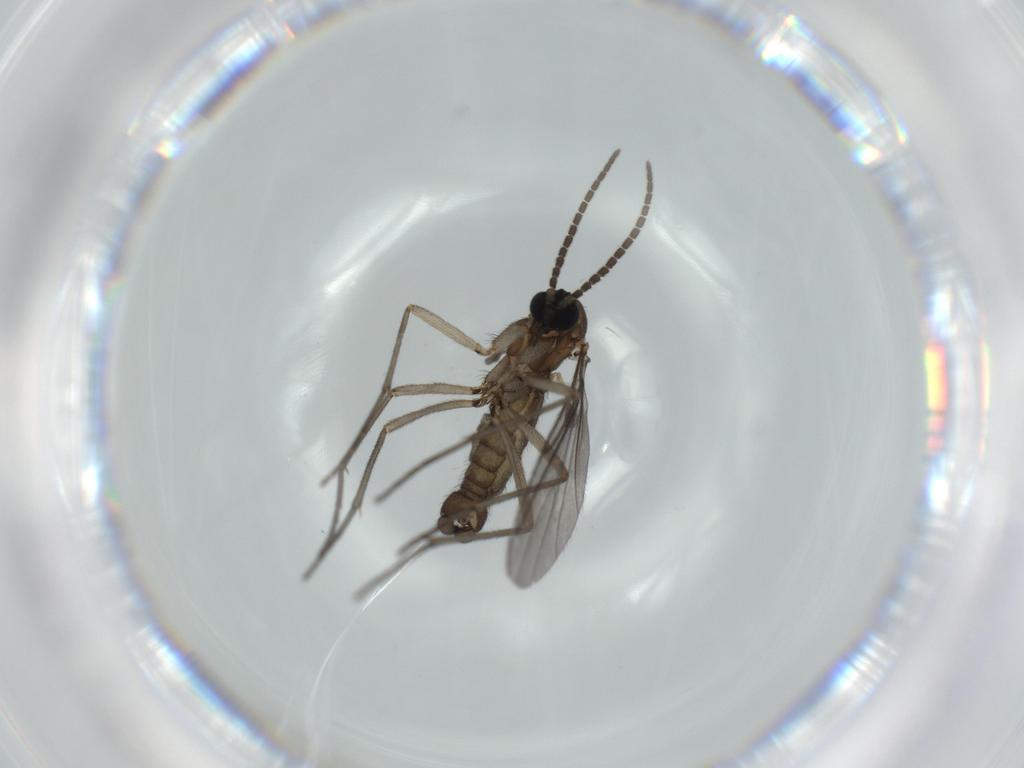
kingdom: Animalia
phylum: Arthropoda
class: Insecta
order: Diptera
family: Sciaridae
